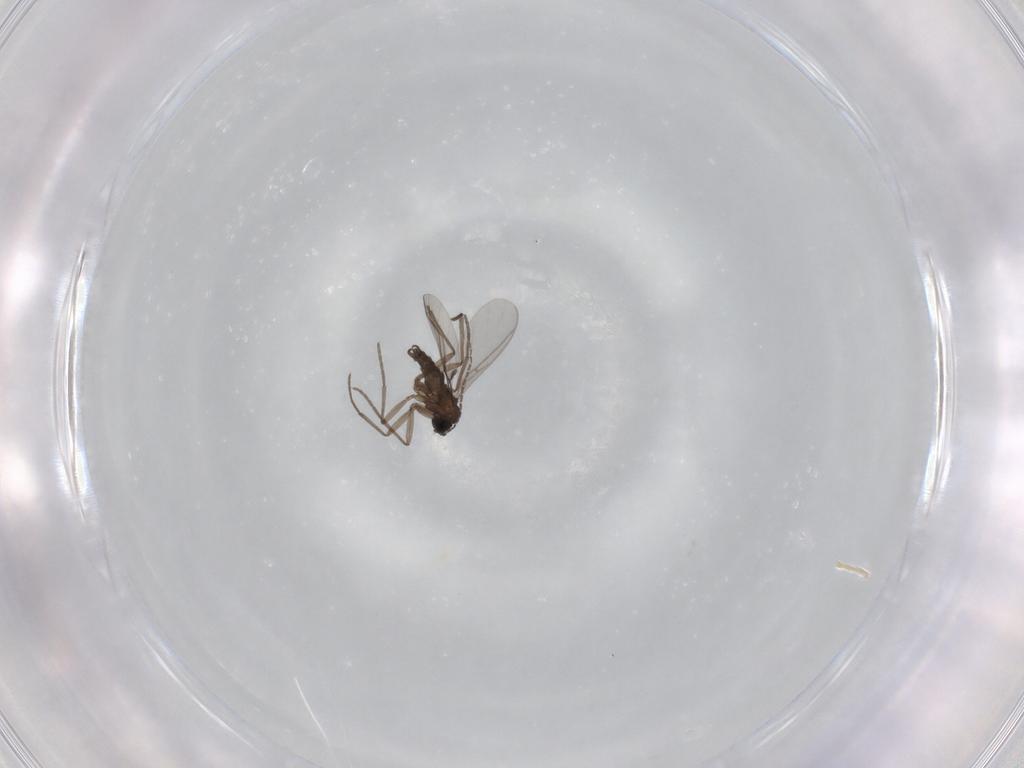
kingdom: Animalia
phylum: Arthropoda
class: Insecta
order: Diptera
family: Sciaridae
